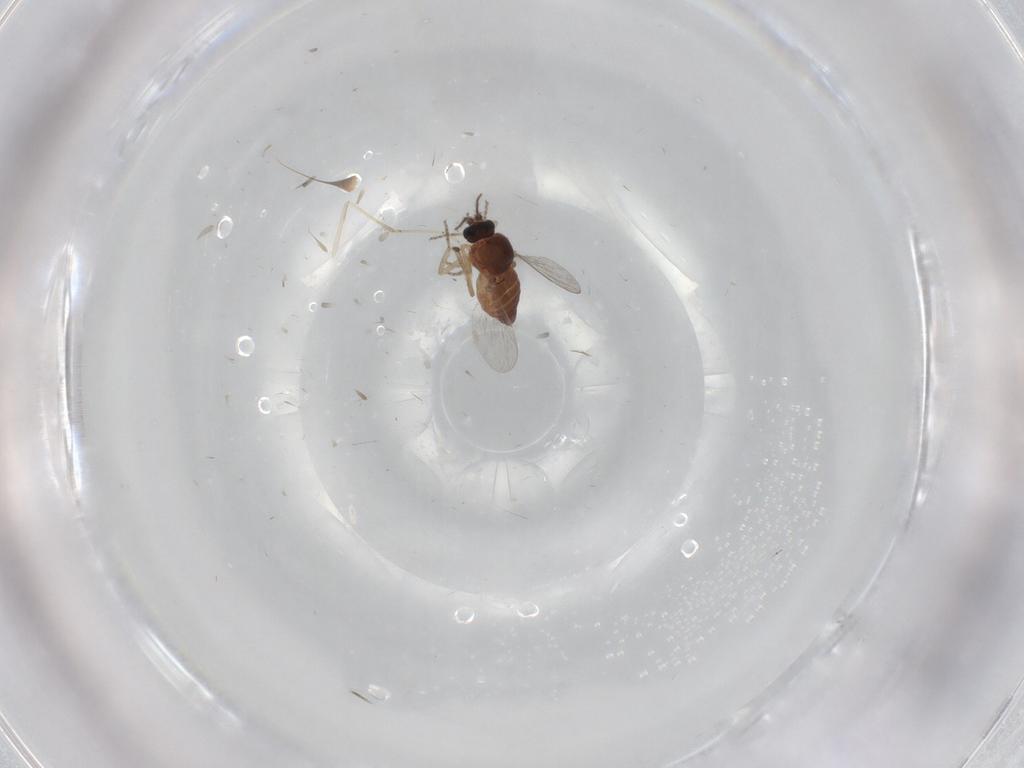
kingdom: Animalia
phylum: Arthropoda
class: Insecta
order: Diptera
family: Ceratopogonidae
